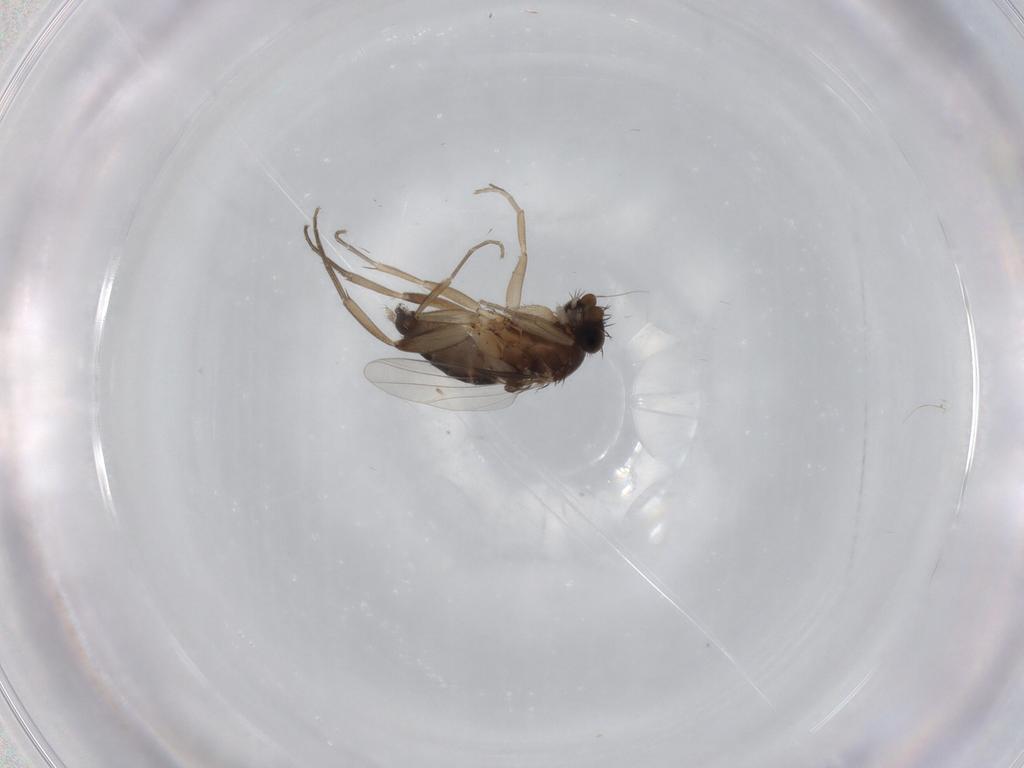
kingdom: Animalia
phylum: Arthropoda
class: Insecta
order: Diptera
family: Phoridae
